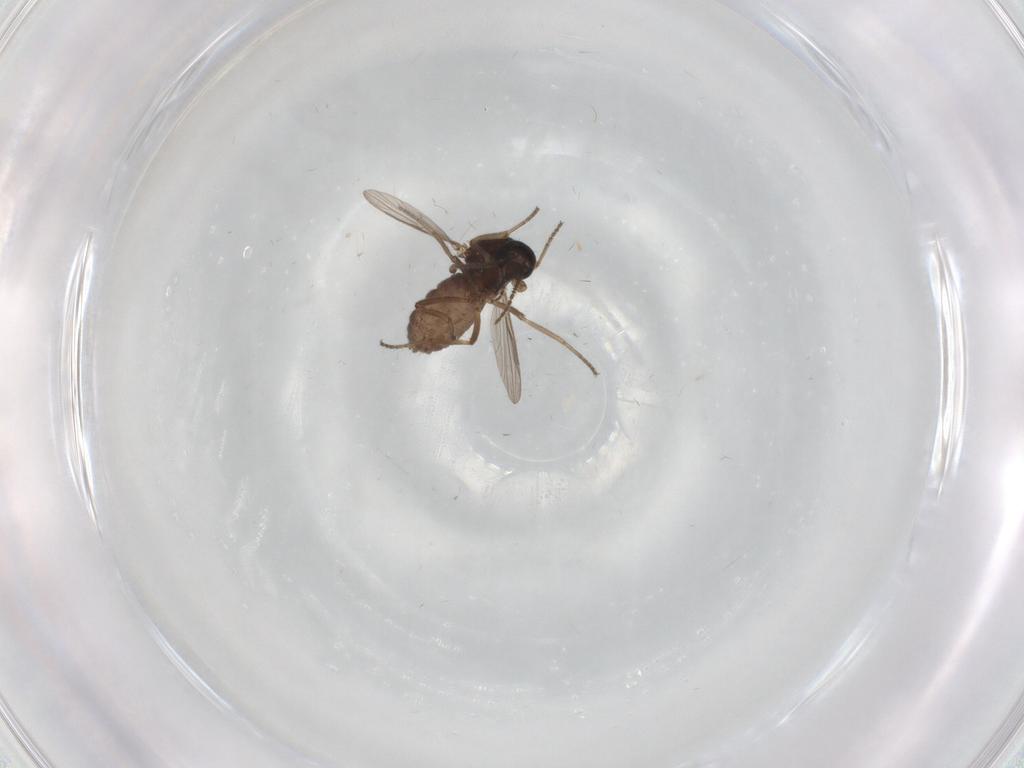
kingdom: Animalia
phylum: Arthropoda
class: Insecta
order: Diptera
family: Ceratopogonidae
